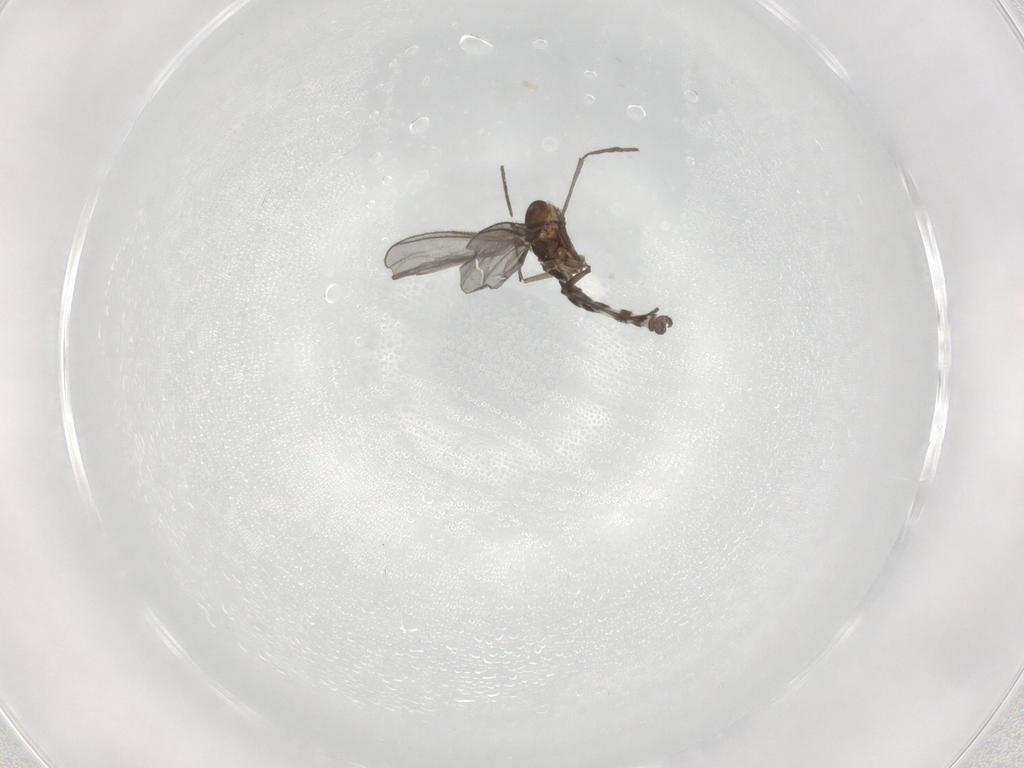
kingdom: Animalia
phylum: Arthropoda
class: Insecta
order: Diptera
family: Chironomidae
